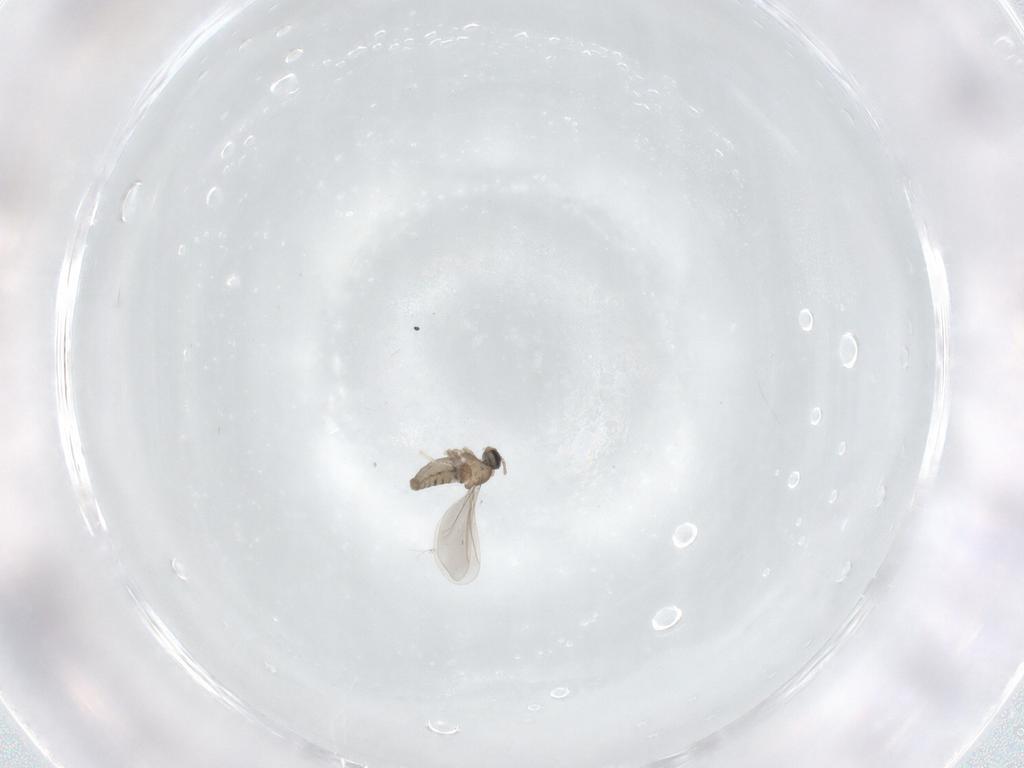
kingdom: Animalia
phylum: Arthropoda
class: Insecta
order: Diptera
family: Cecidomyiidae
